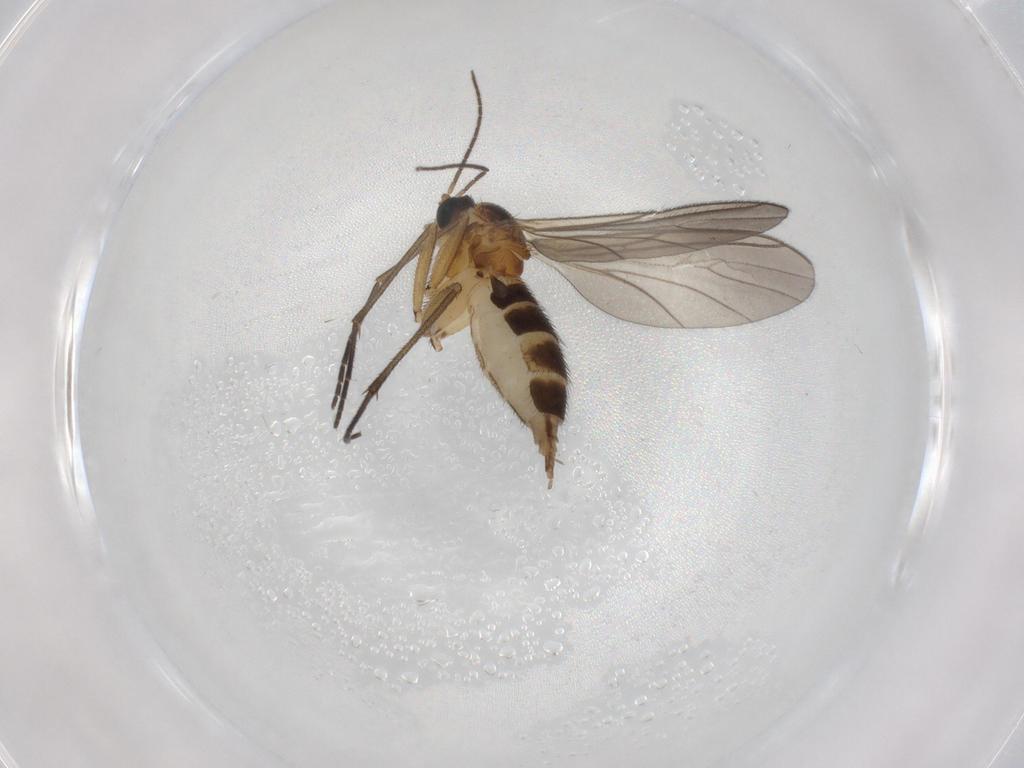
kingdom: Animalia
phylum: Arthropoda
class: Insecta
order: Diptera
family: Sciaridae
